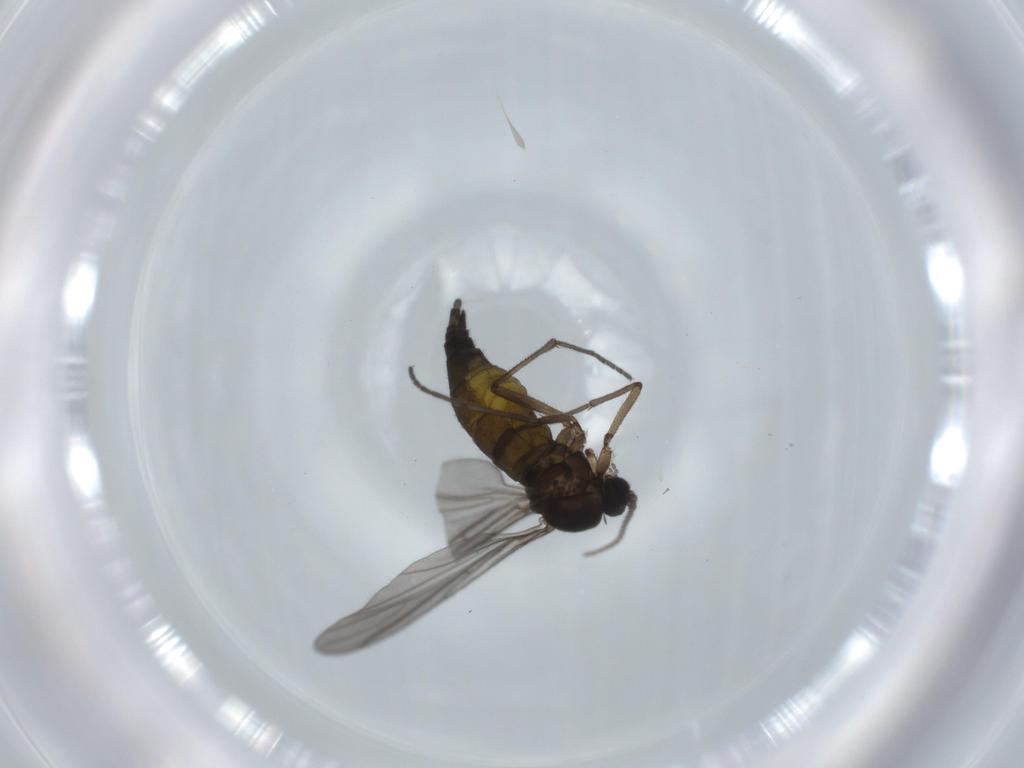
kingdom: Animalia
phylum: Arthropoda
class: Insecta
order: Diptera
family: Sciaridae
